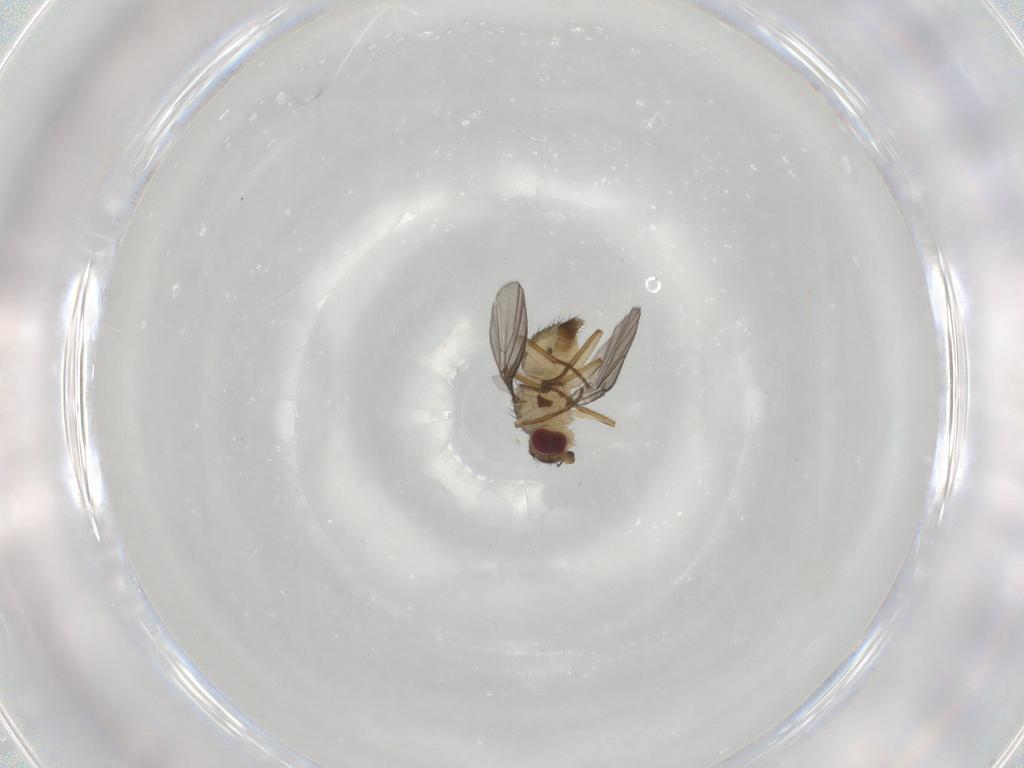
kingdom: Animalia
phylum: Arthropoda
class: Insecta
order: Diptera
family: Agromyzidae
